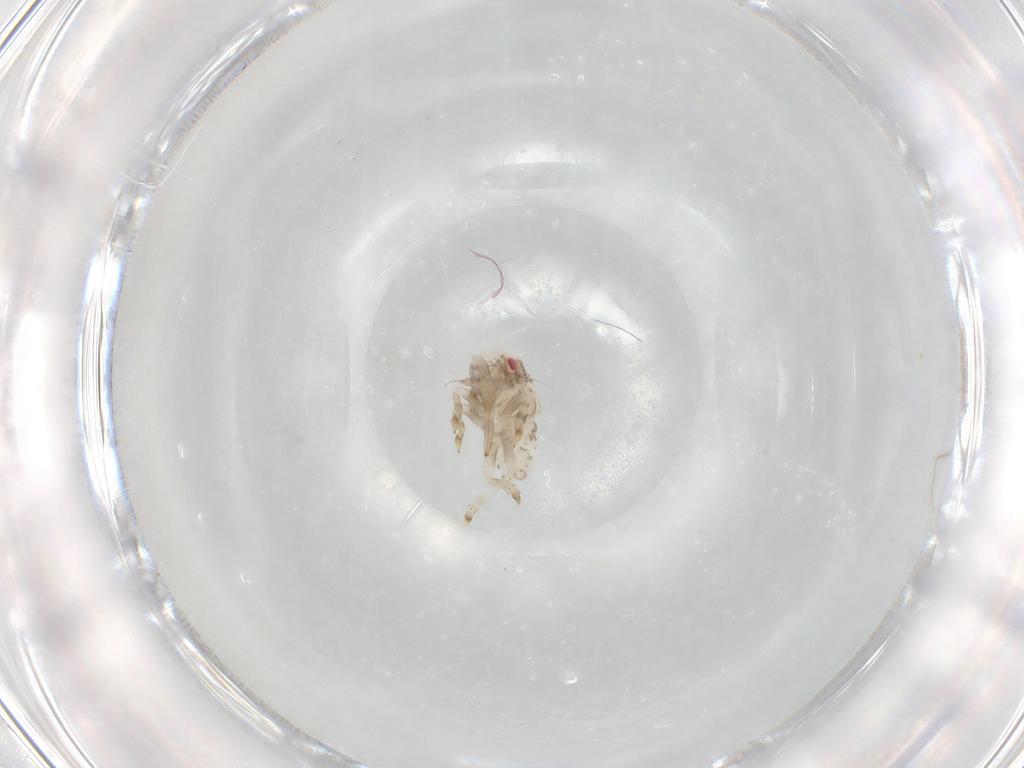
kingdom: Animalia
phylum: Arthropoda
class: Insecta
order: Hemiptera
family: Acanaloniidae
